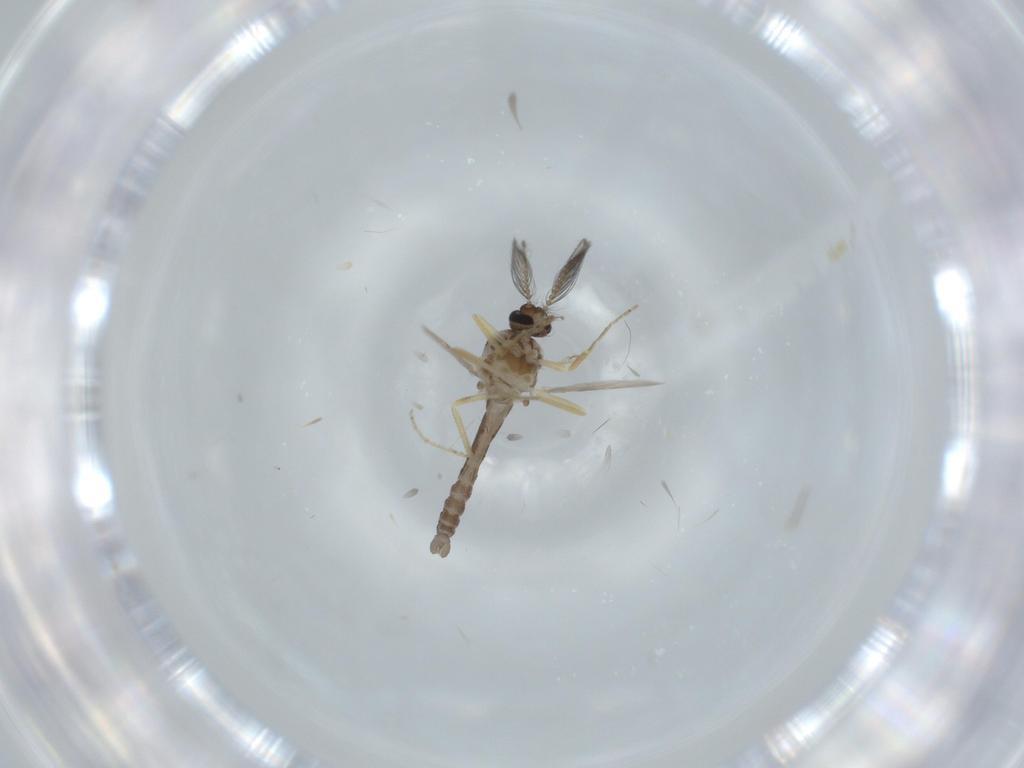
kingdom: Animalia
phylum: Arthropoda
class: Insecta
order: Diptera
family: Ceratopogonidae
